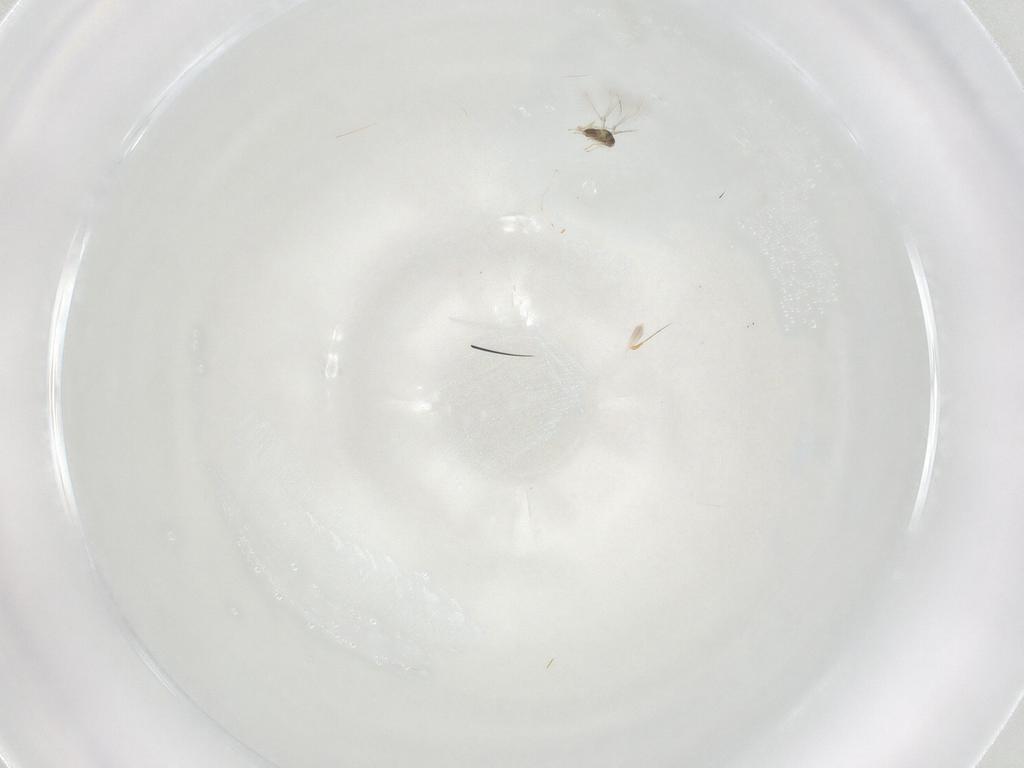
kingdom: Animalia
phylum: Arthropoda
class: Insecta
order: Hymenoptera
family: Mymaridae
